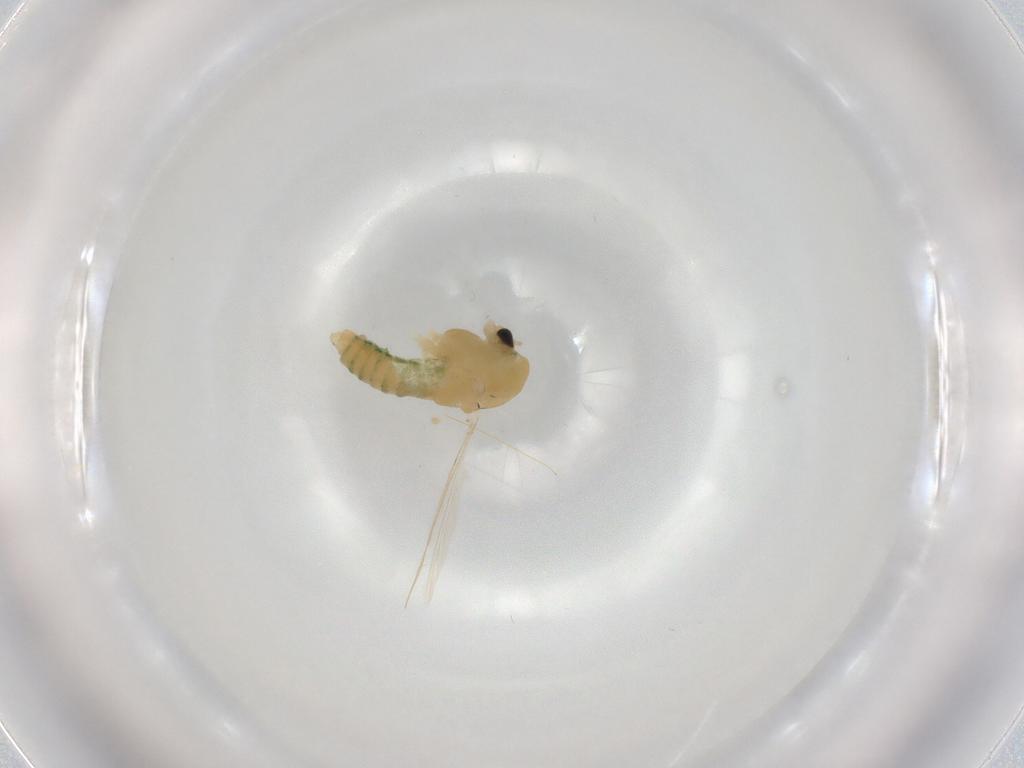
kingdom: Animalia
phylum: Arthropoda
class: Insecta
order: Diptera
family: Chironomidae
